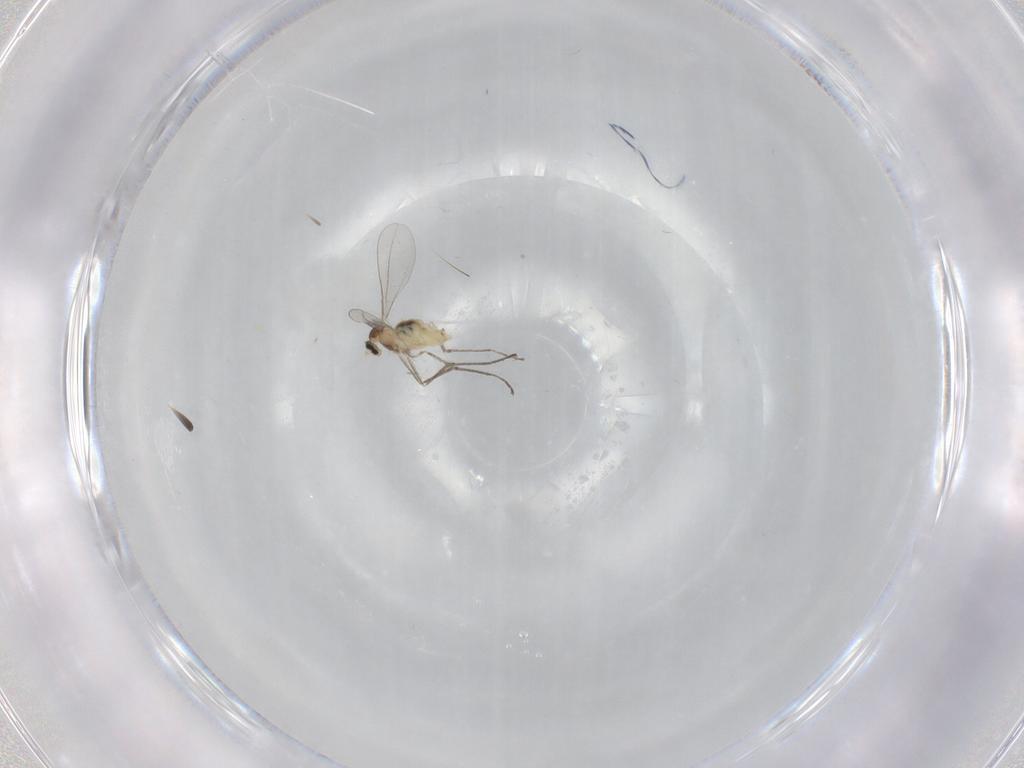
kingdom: Animalia
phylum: Arthropoda
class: Insecta
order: Diptera
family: Cecidomyiidae
